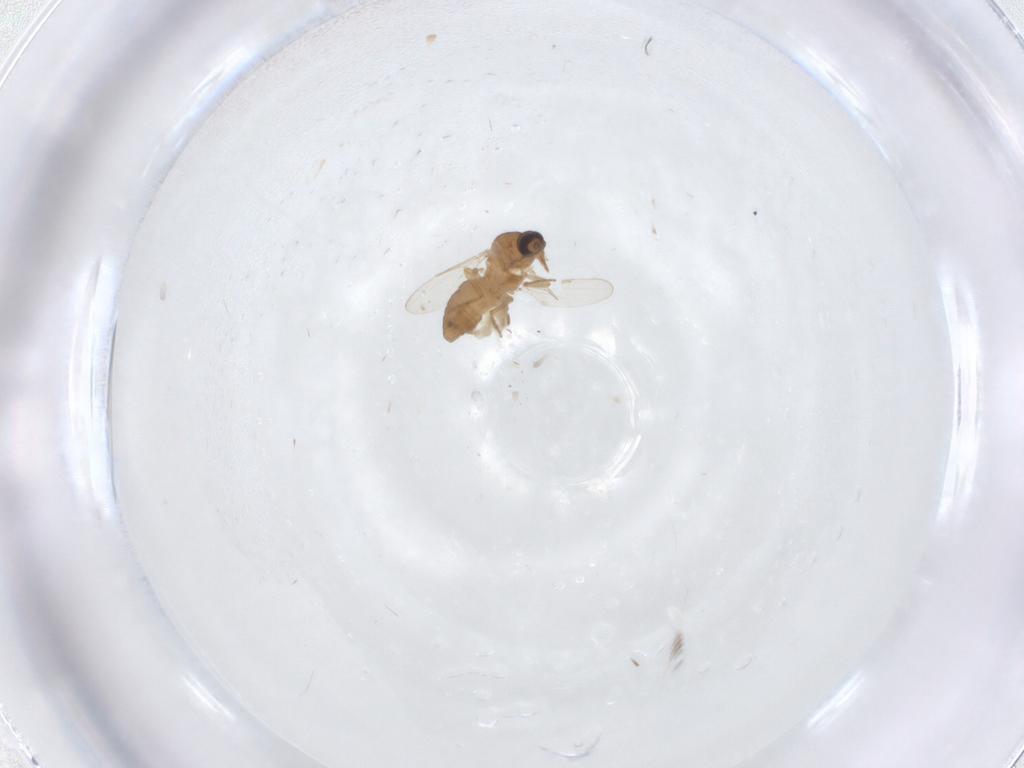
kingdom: Animalia
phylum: Arthropoda
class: Insecta
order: Diptera
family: Ceratopogonidae
